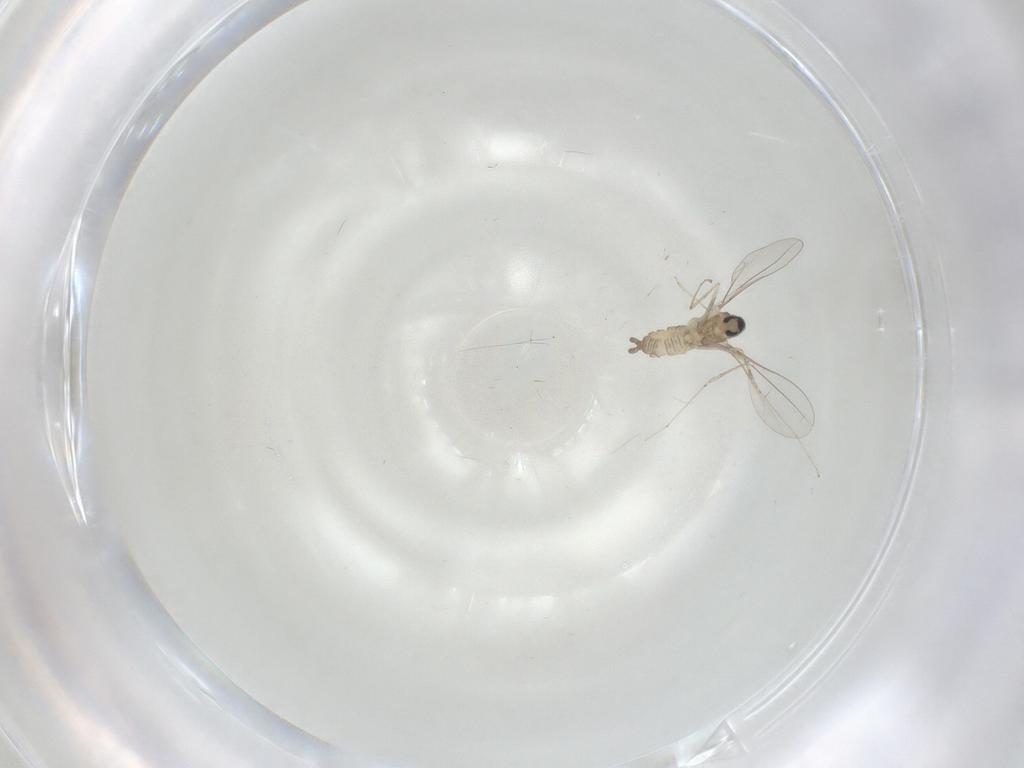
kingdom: Animalia
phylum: Arthropoda
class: Insecta
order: Diptera
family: Cecidomyiidae
